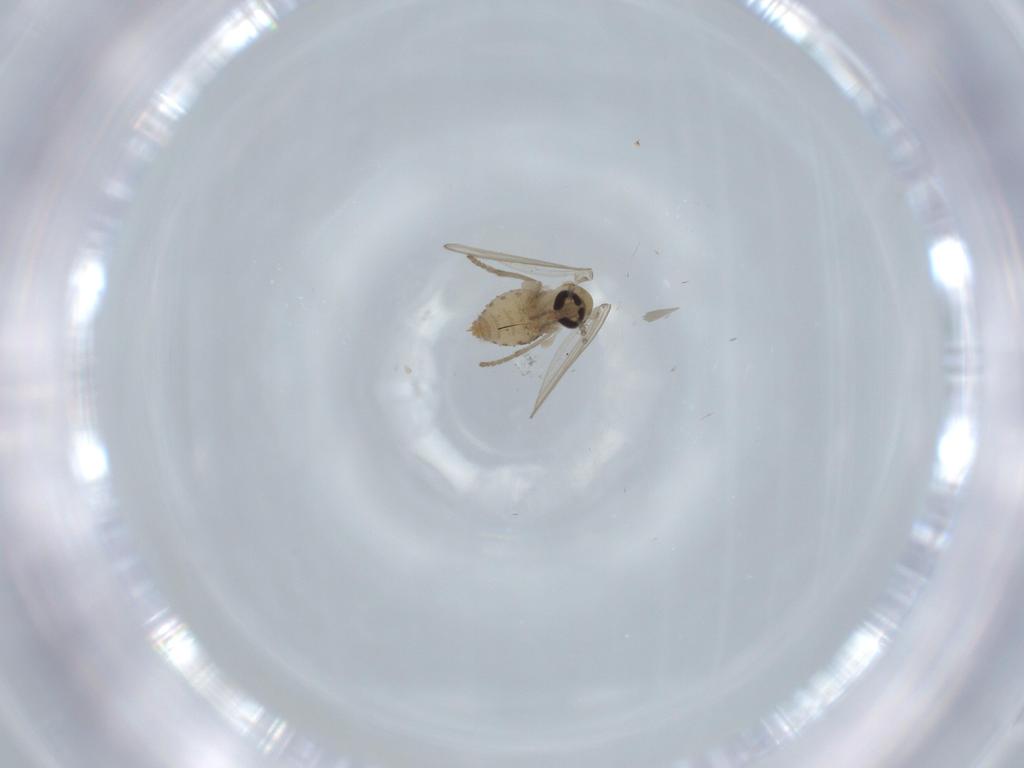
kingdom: Animalia
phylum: Arthropoda
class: Insecta
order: Diptera
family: Psychodidae
